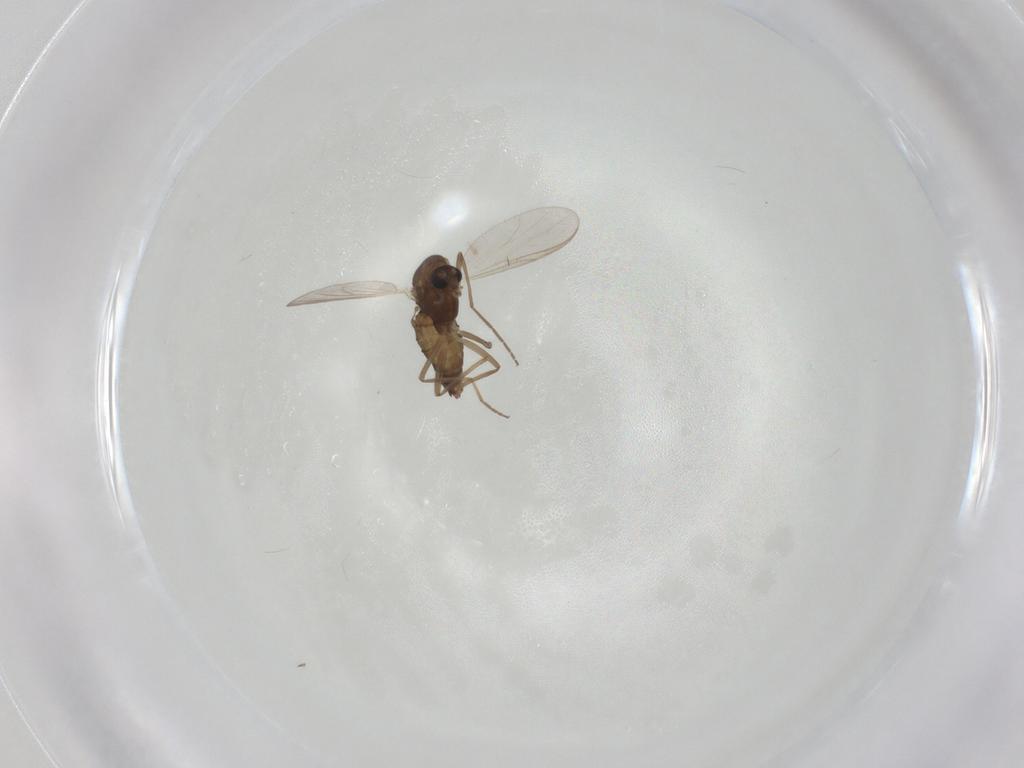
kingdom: Animalia
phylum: Arthropoda
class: Insecta
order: Diptera
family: Chironomidae
